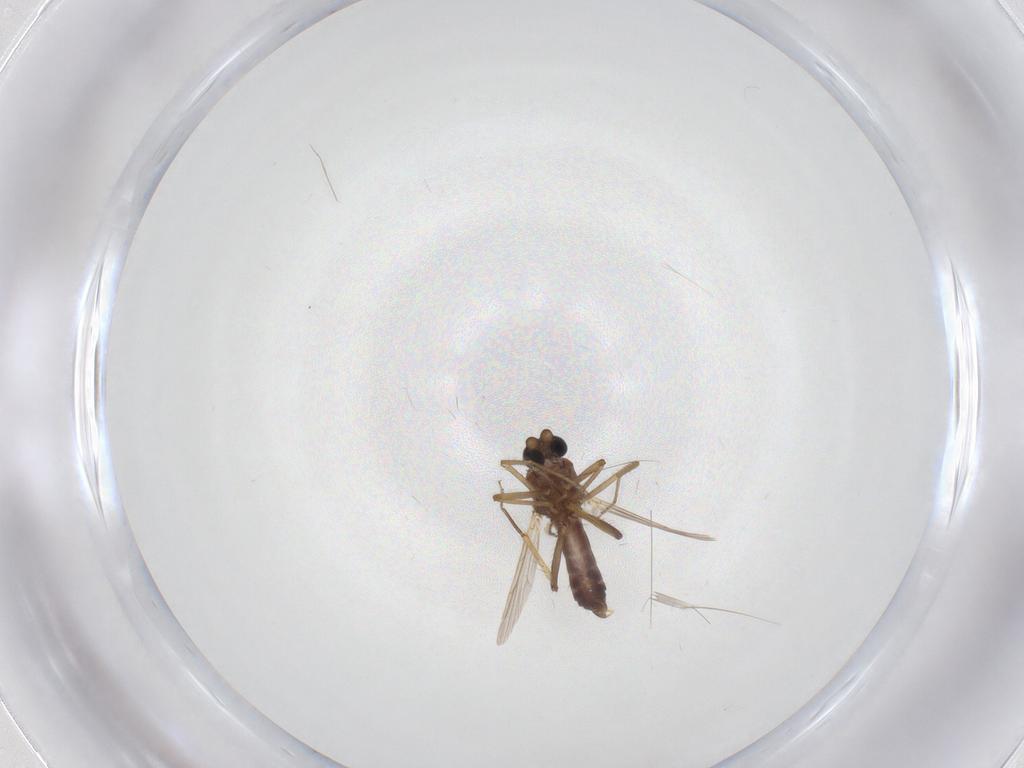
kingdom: Animalia
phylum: Arthropoda
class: Insecta
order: Diptera
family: Ceratopogonidae
